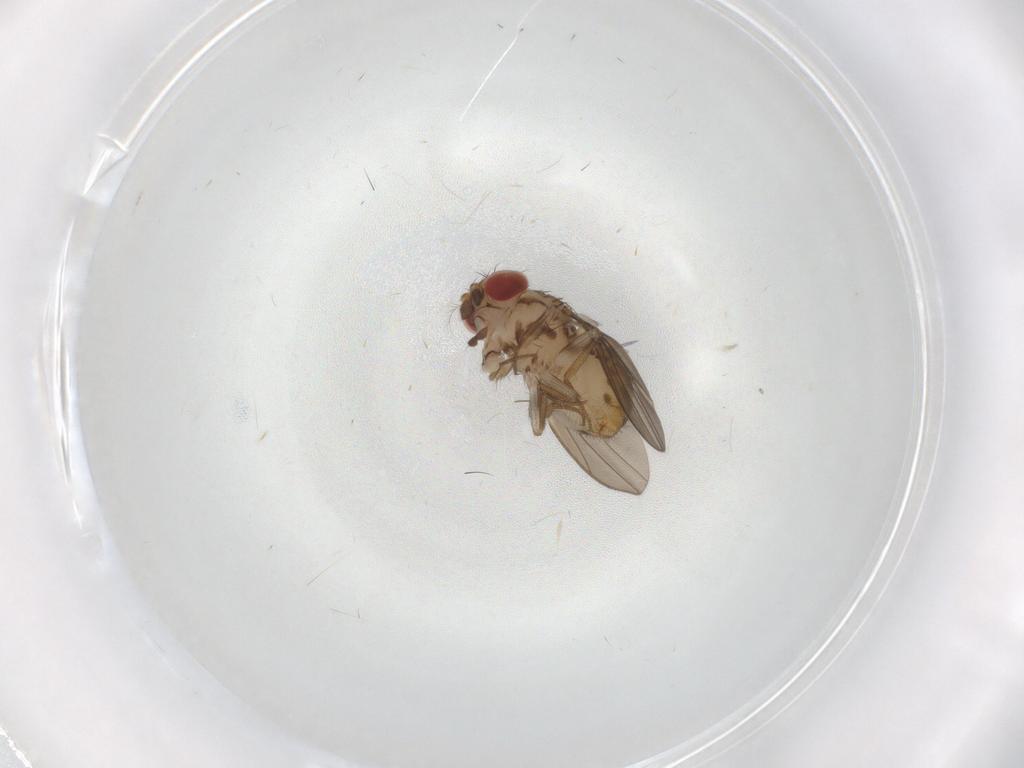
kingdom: Animalia
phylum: Arthropoda
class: Insecta
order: Diptera
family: Drosophilidae
